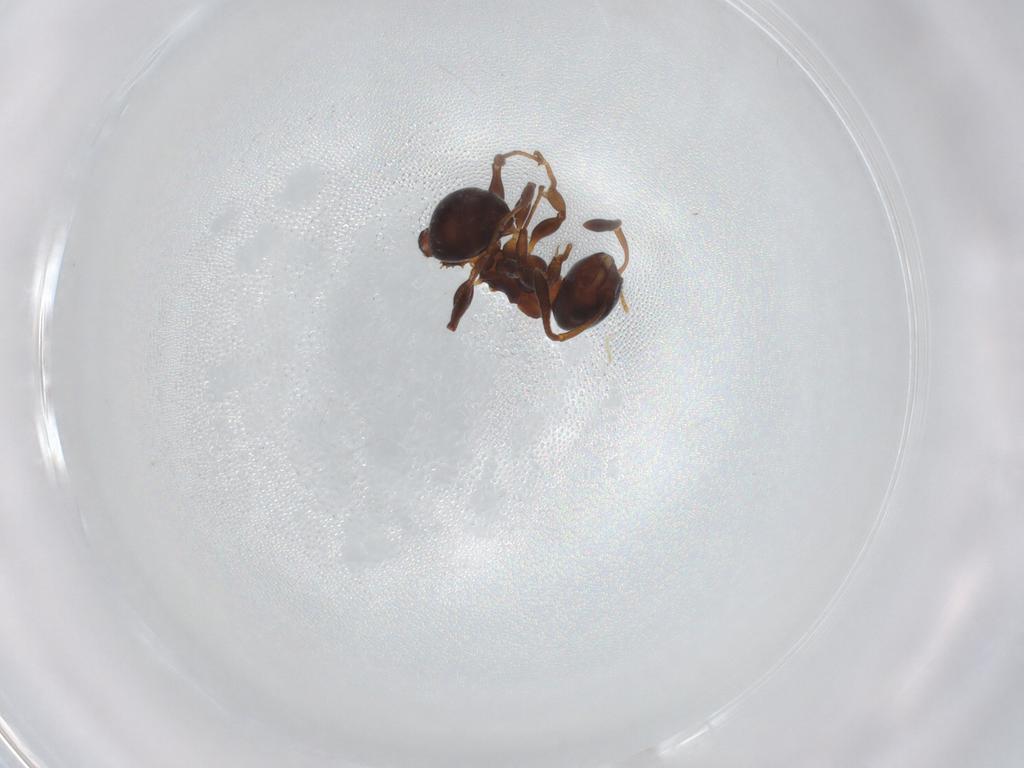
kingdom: Animalia
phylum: Arthropoda
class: Insecta
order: Hymenoptera
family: Formicidae
